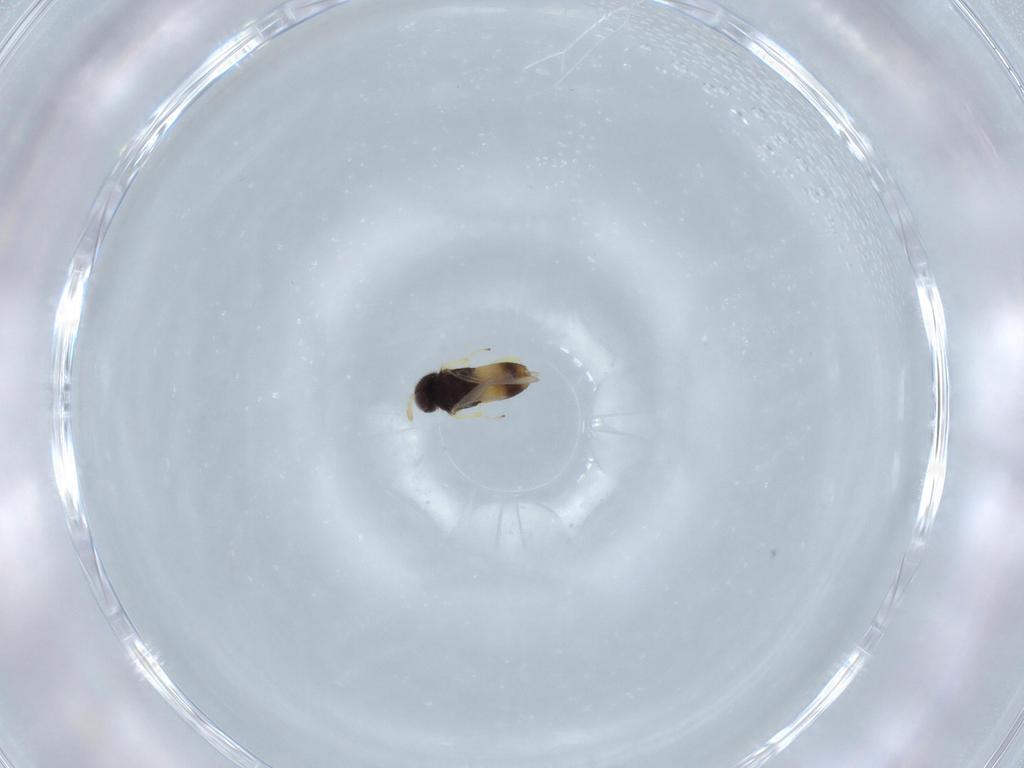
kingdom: Animalia
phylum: Arthropoda
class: Insecta
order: Hymenoptera
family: Aphelinidae
